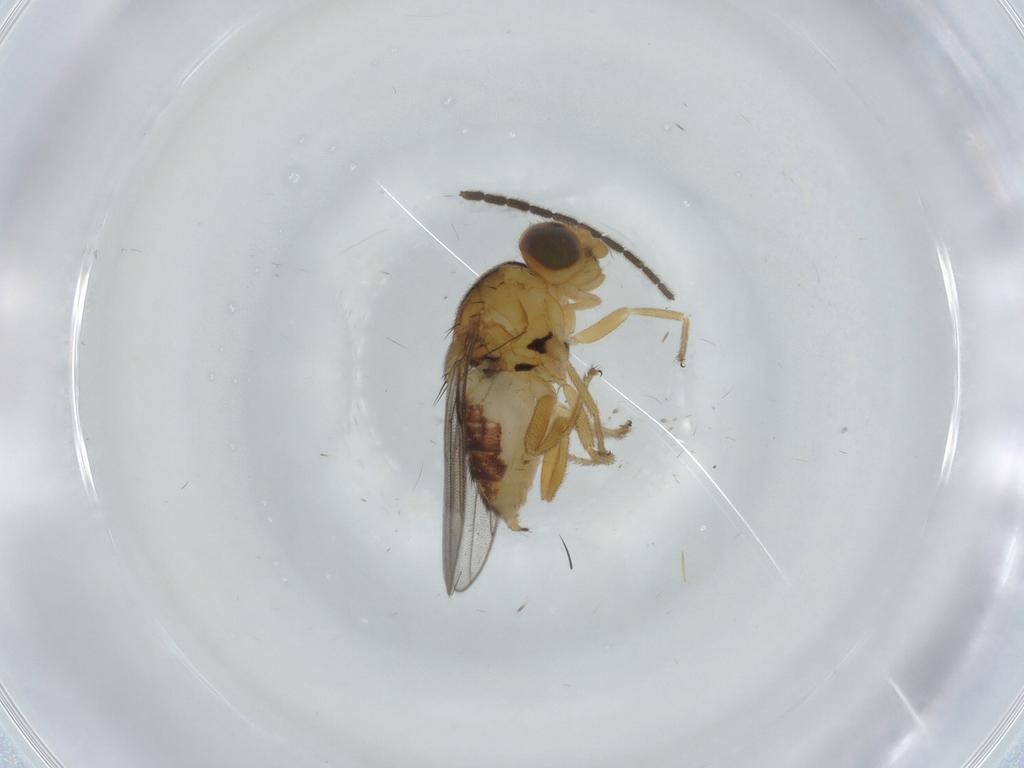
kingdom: Animalia
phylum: Arthropoda
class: Insecta
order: Diptera
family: Chloropidae
